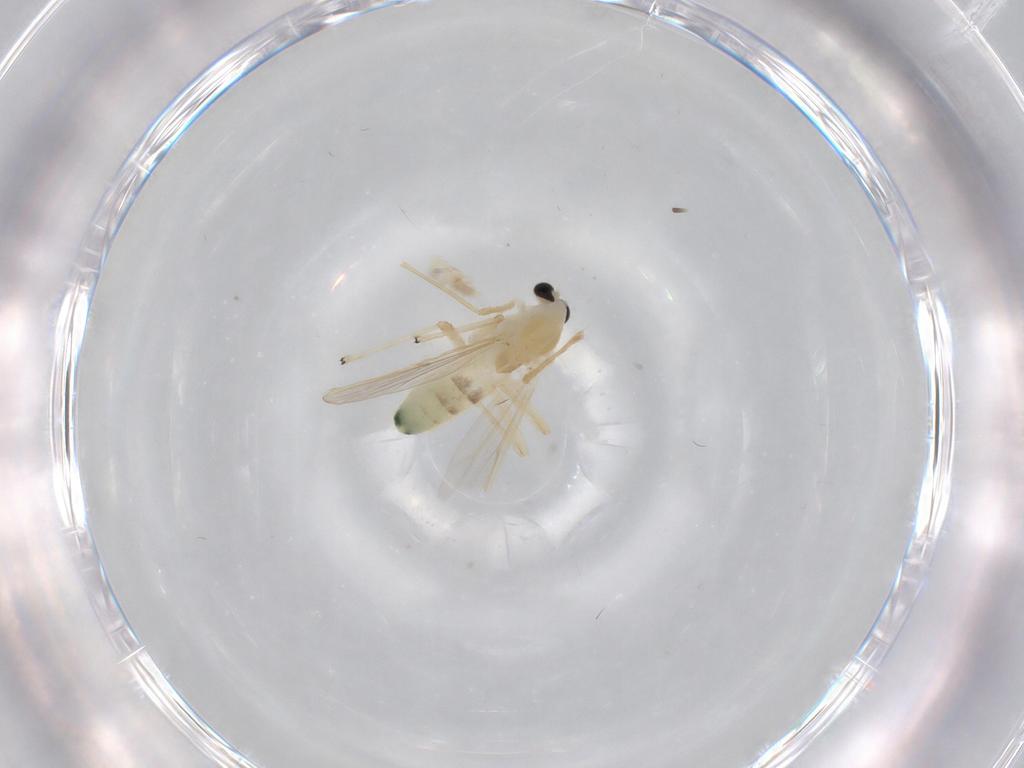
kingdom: Animalia
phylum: Arthropoda
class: Insecta
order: Diptera
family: Chironomidae
